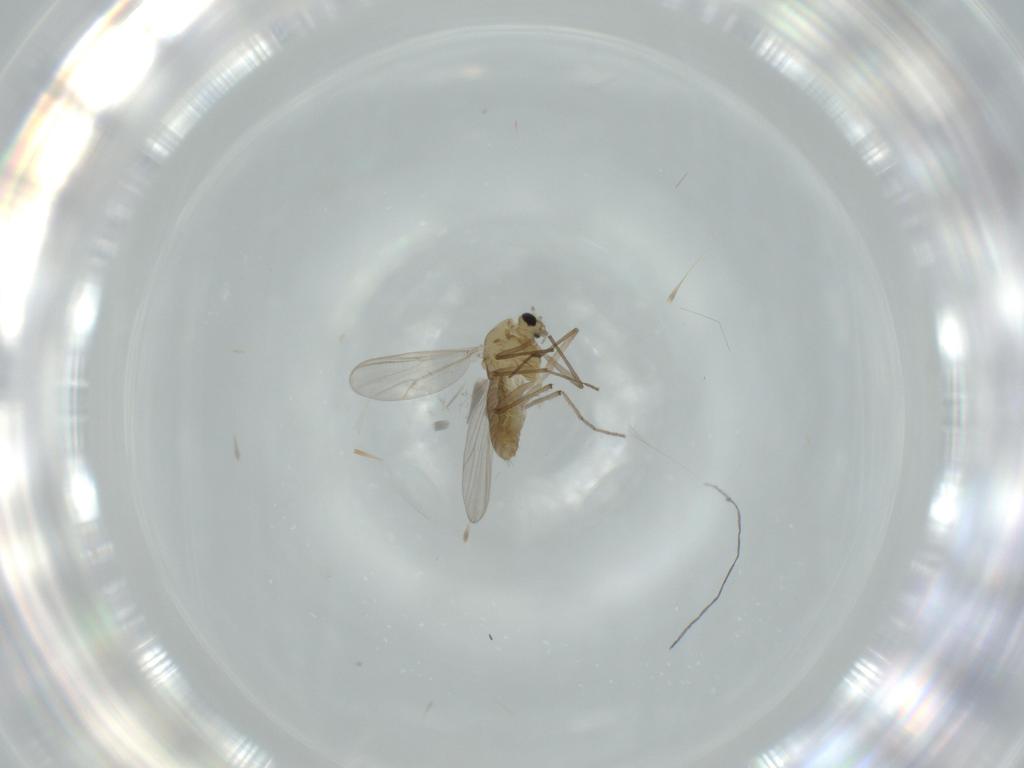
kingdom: Animalia
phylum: Arthropoda
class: Insecta
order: Diptera
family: Chironomidae
